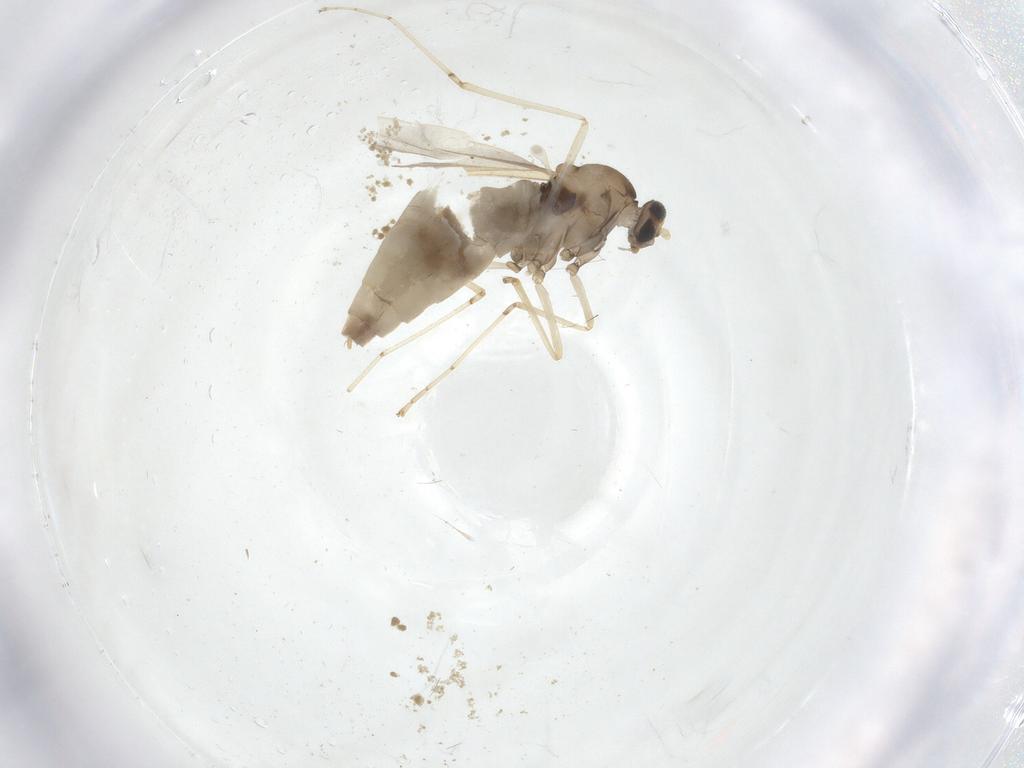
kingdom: Animalia
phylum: Arthropoda
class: Insecta
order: Diptera
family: Cecidomyiidae
